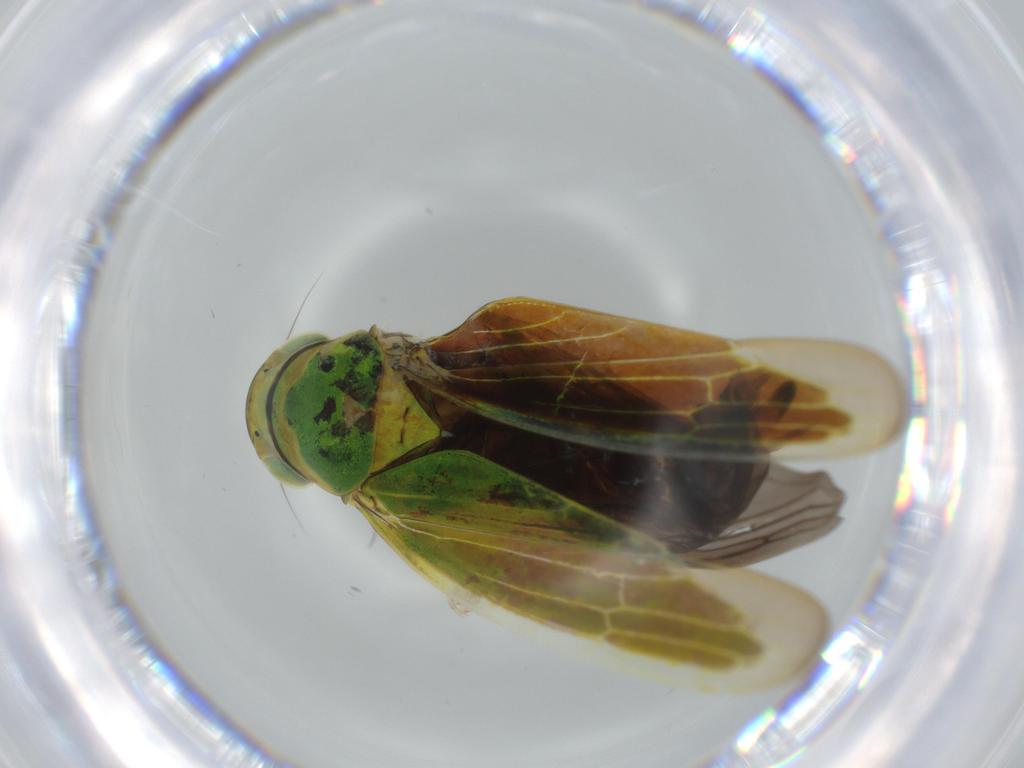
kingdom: Animalia
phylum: Arthropoda
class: Insecta
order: Hemiptera
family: Cicadellidae
